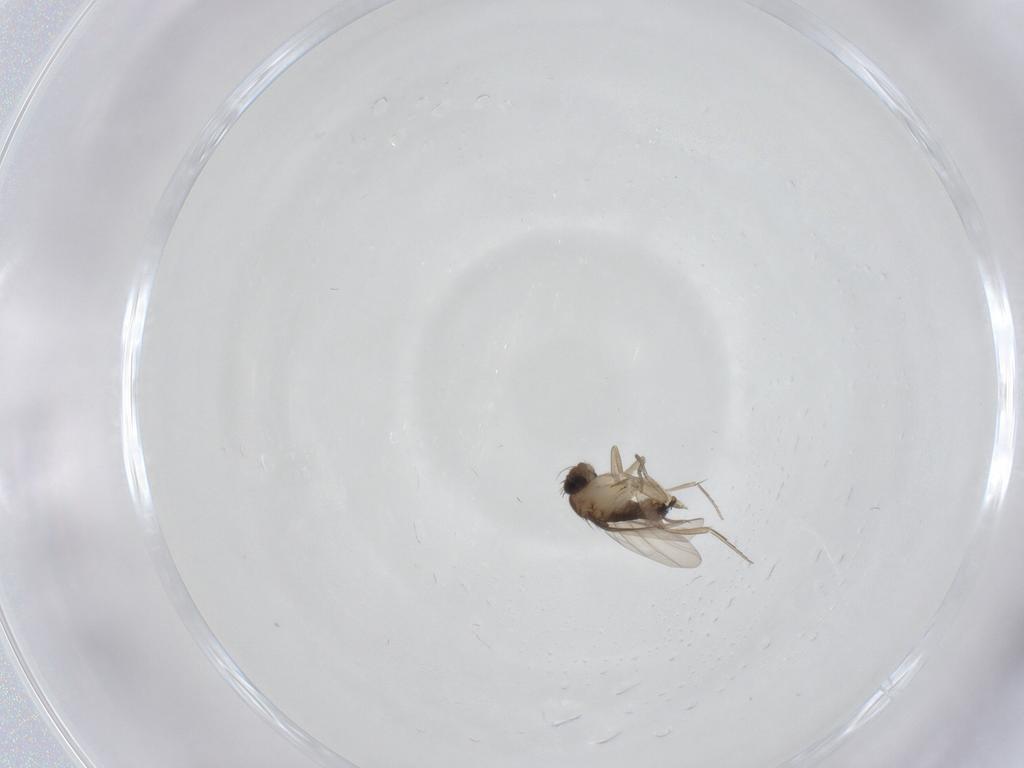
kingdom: Animalia
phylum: Arthropoda
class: Insecta
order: Diptera
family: Phoridae
